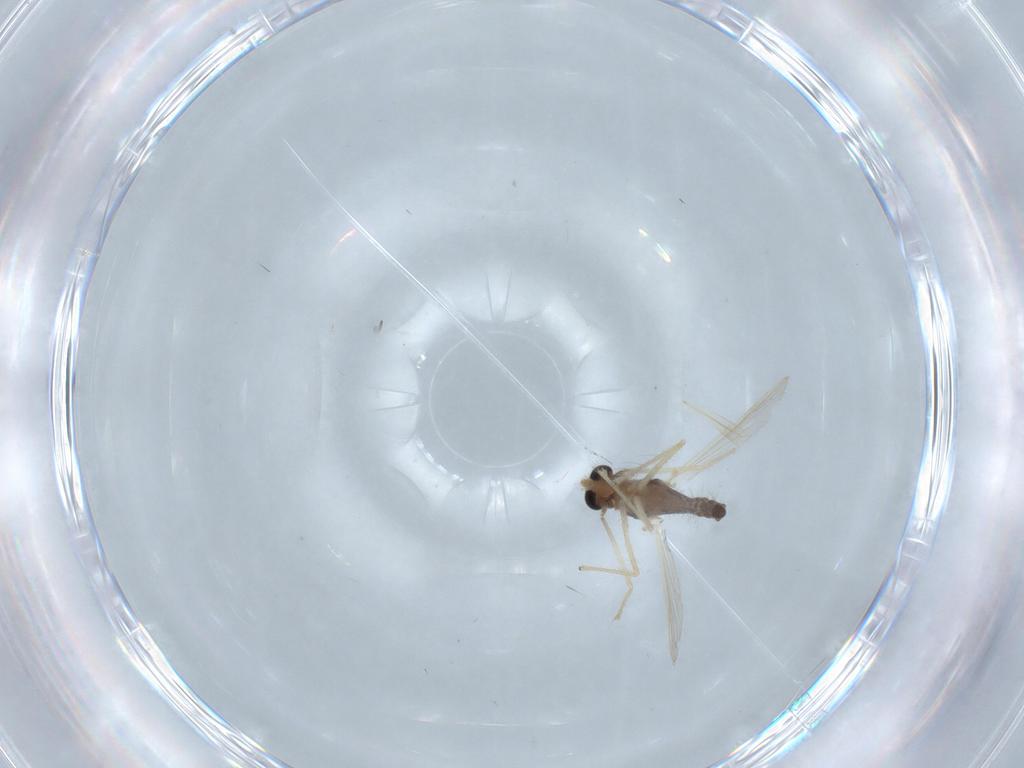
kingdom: Animalia
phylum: Arthropoda
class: Insecta
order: Diptera
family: Chironomidae
